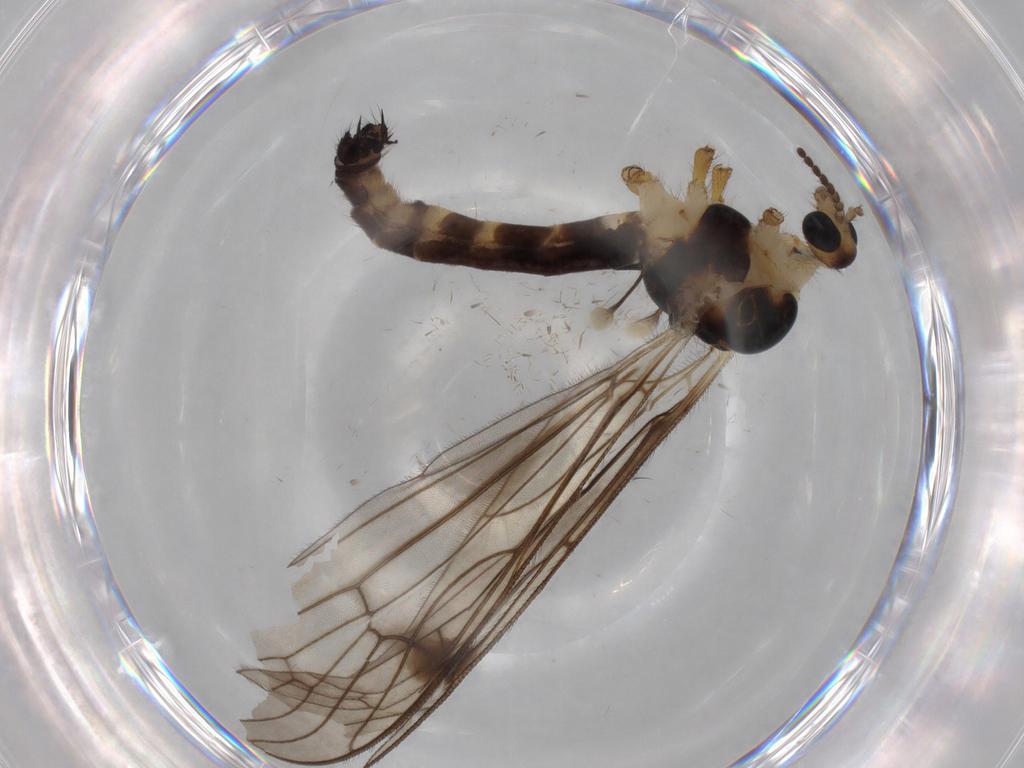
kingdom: Animalia
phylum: Arthropoda
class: Insecta
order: Diptera
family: Limoniidae
